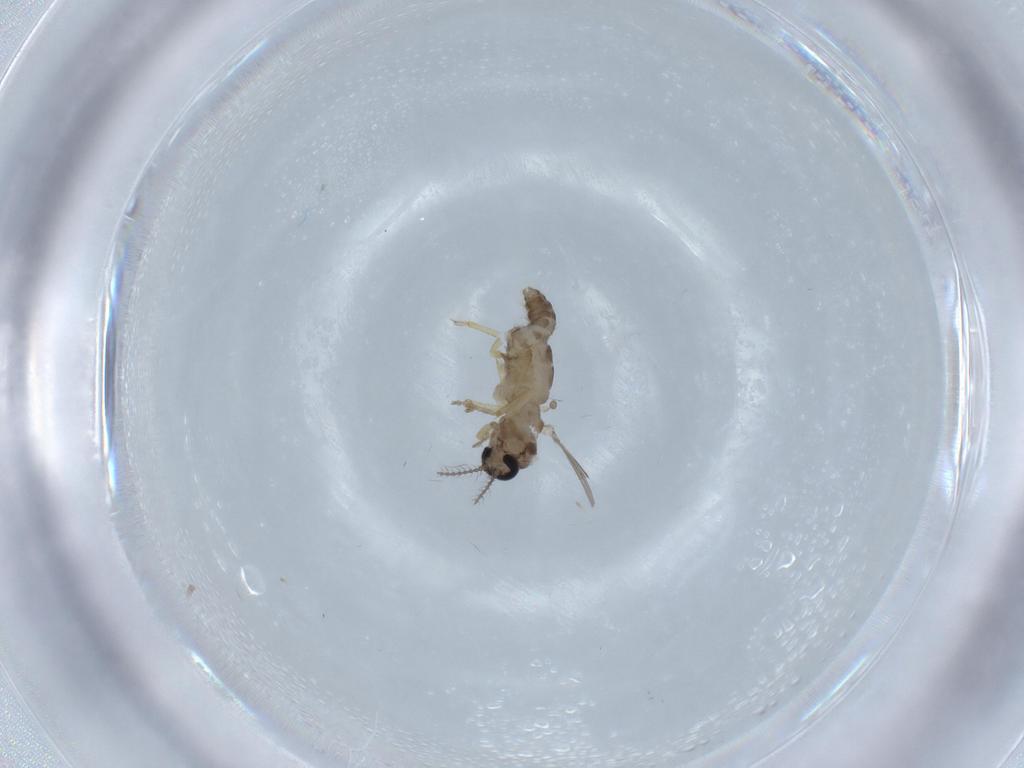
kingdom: Animalia
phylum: Arthropoda
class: Insecta
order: Diptera
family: Ceratopogonidae
